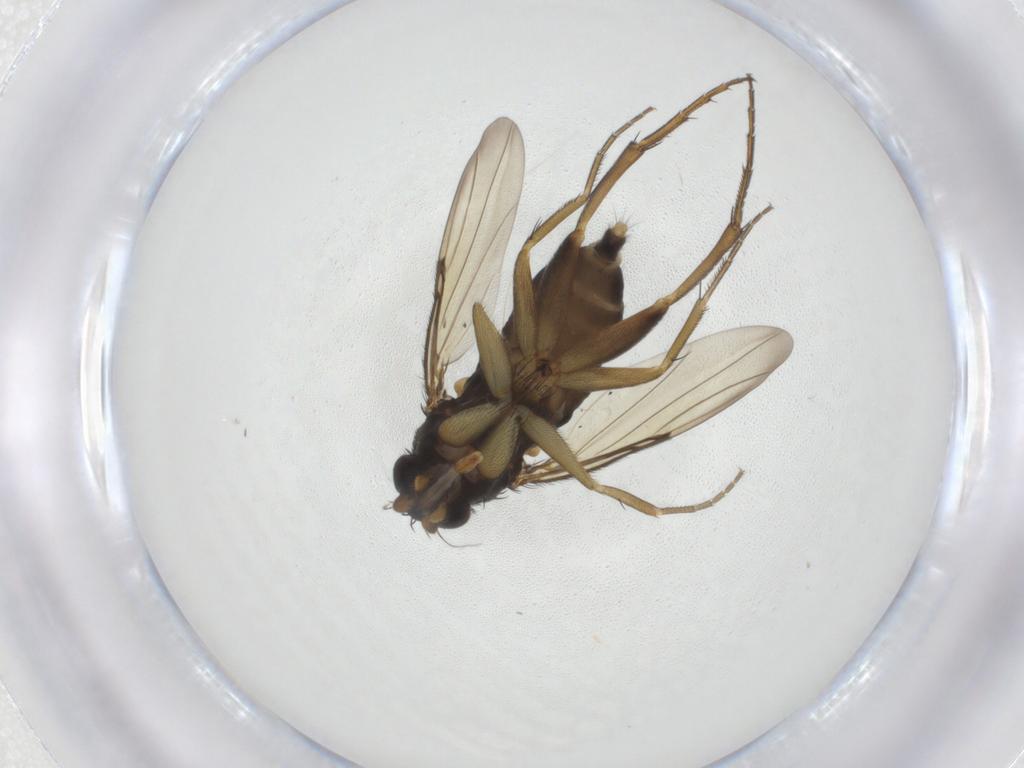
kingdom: Animalia
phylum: Arthropoda
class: Insecta
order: Diptera
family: Phoridae
